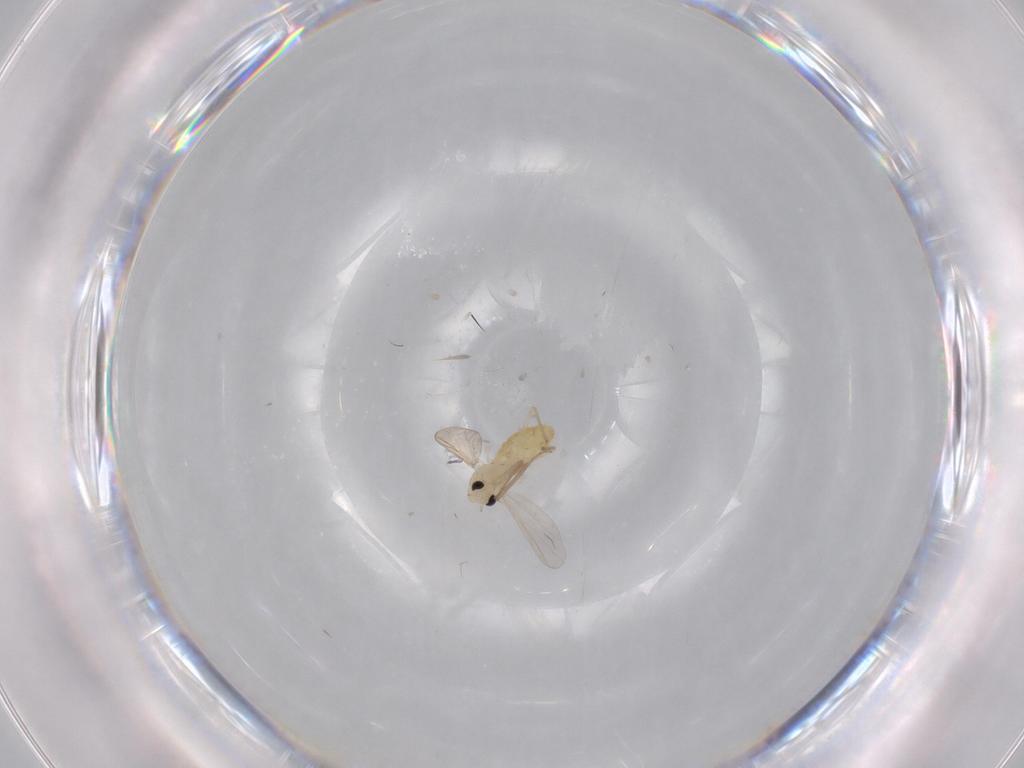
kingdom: Animalia
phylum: Arthropoda
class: Insecta
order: Diptera
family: Chironomidae
